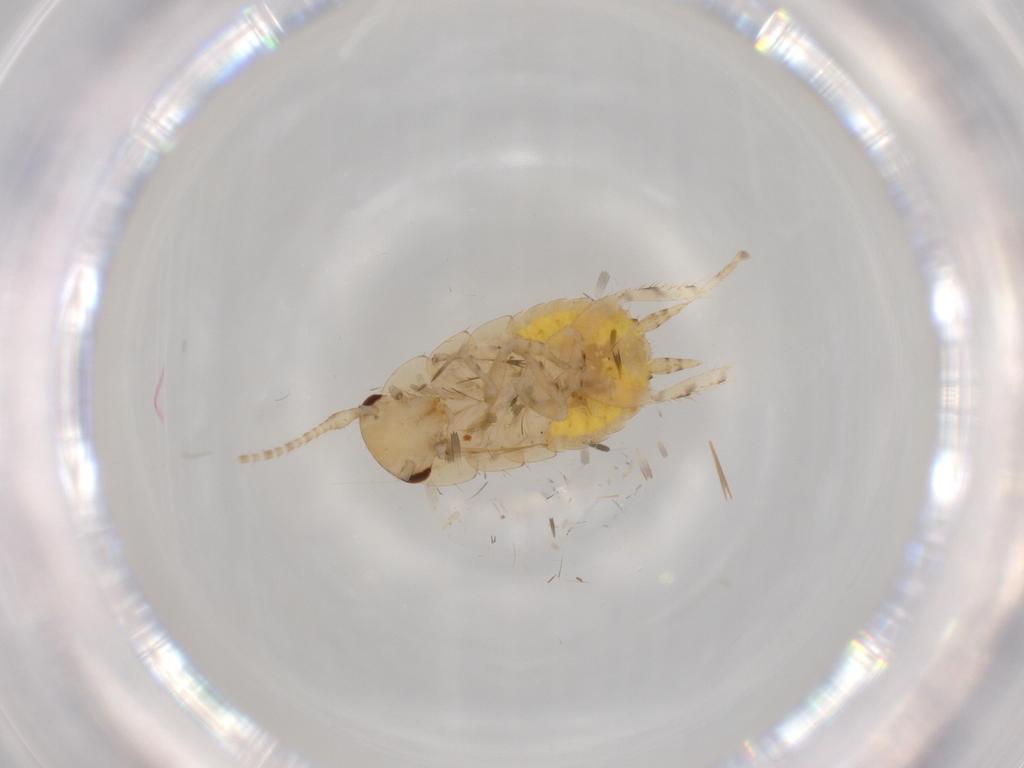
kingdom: Animalia
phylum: Arthropoda
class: Insecta
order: Blattodea
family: Ectobiidae
